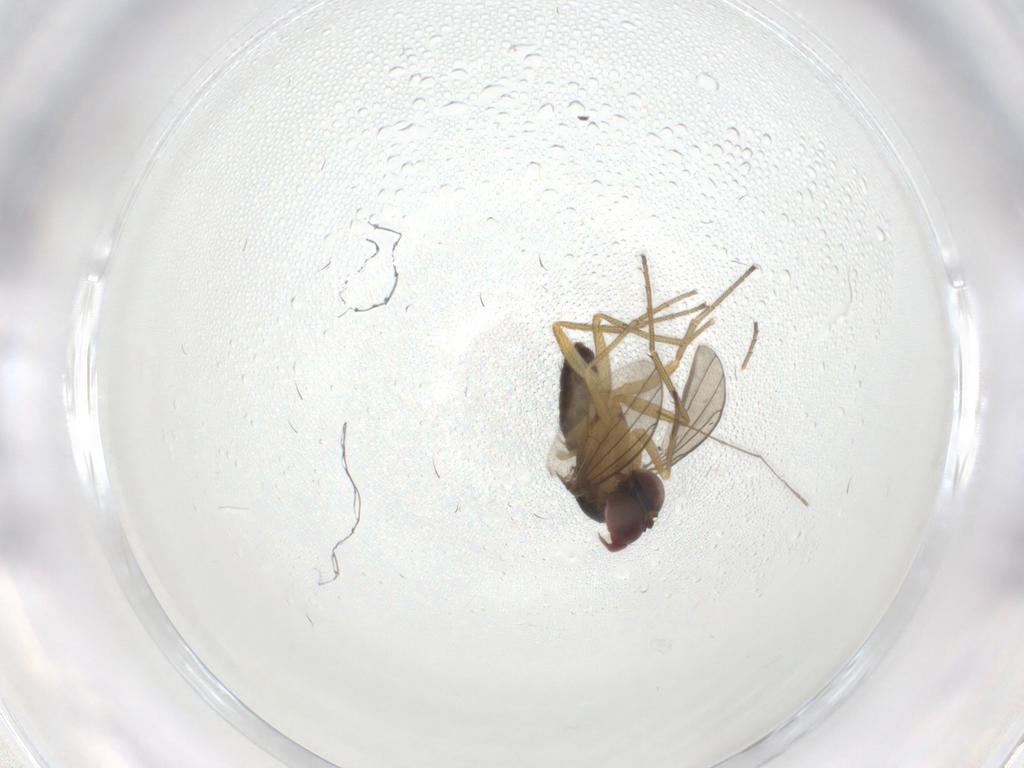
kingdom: Animalia
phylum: Arthropoda
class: Insecta
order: Diptera
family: Dolichopodidae
